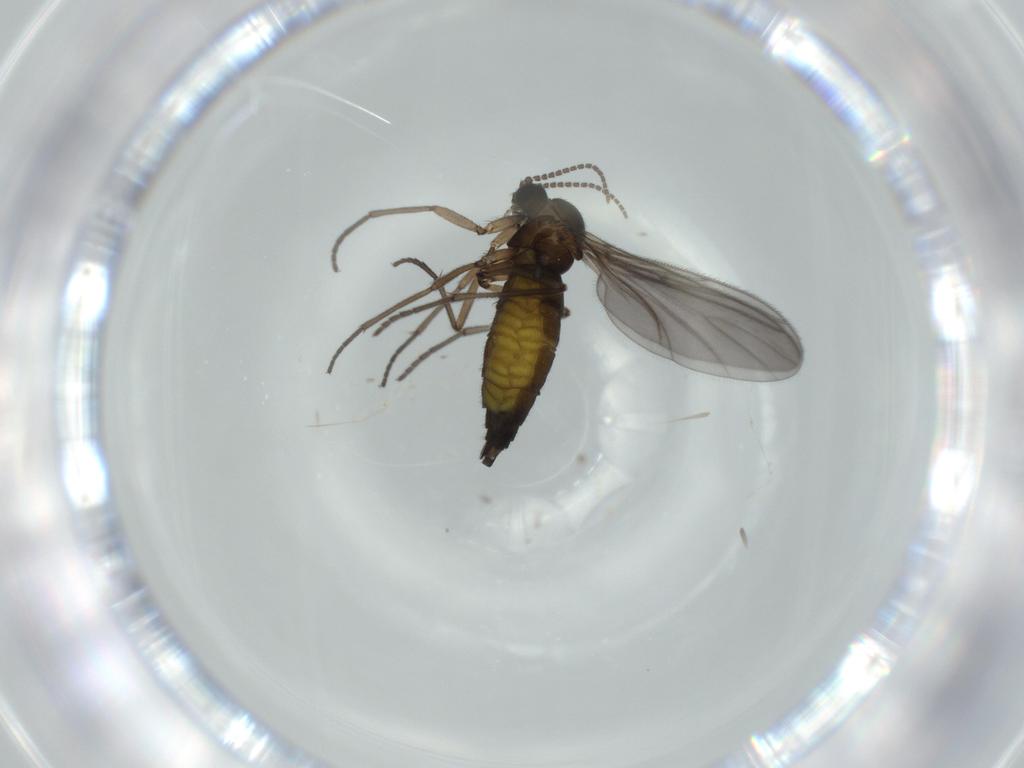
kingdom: Animalia
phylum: Arthropoda
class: Insecta
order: Diptera
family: Sciaridae
